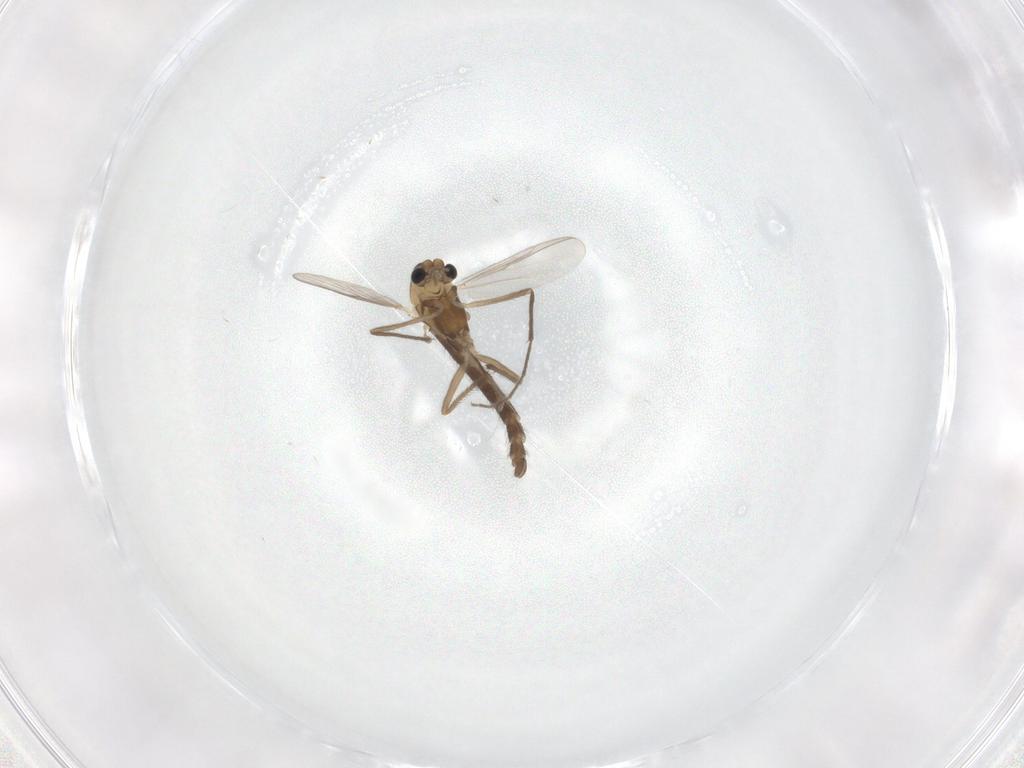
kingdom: Animalia
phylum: Arthropoda
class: Insecta
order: Diptera
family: Chironomidae
